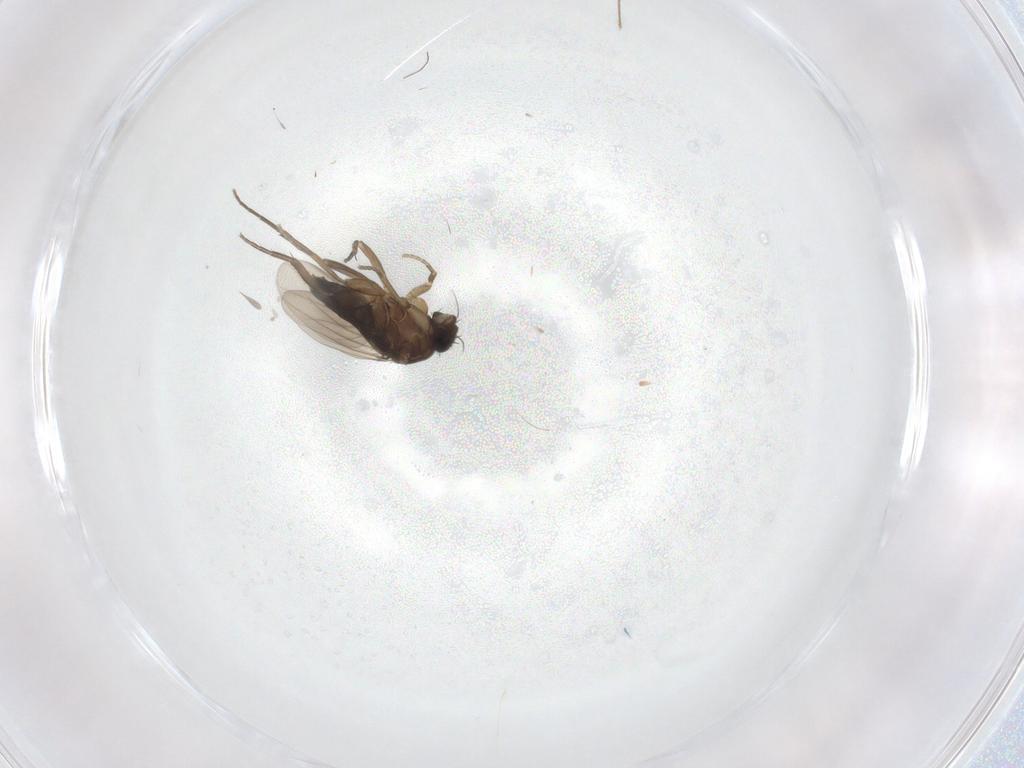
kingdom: Animalia
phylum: Arthropoda
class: Insecta
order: Diptera
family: Phoridae
